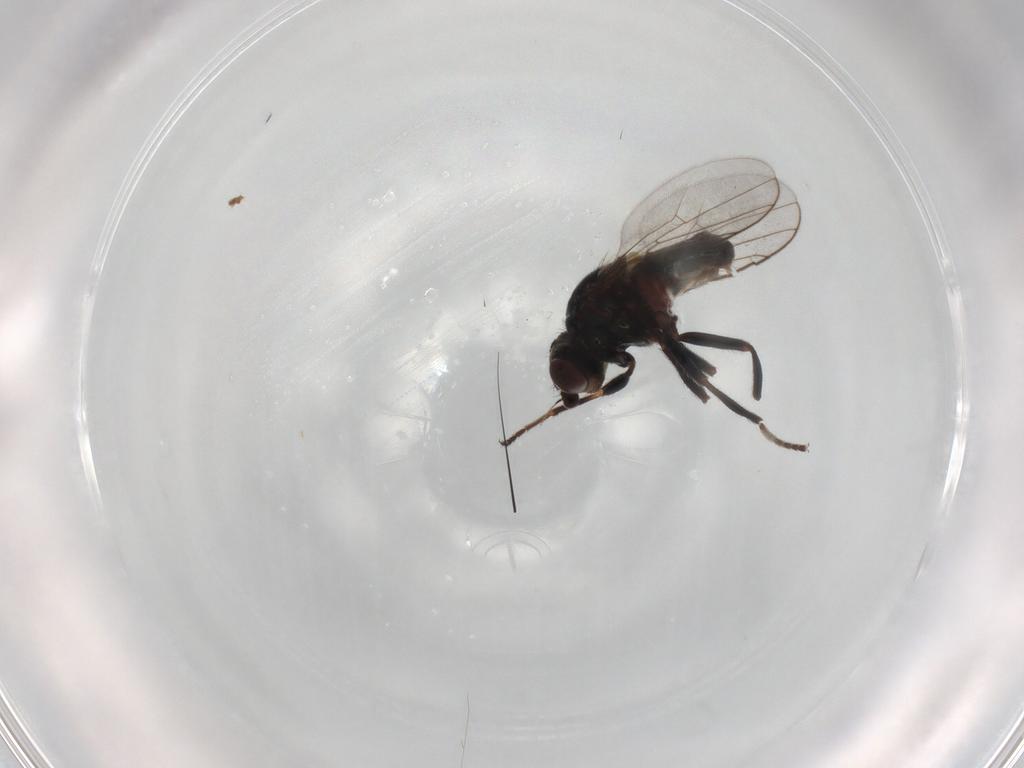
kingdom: Animalia
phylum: Arthropoda
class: Insecta
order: Diptera
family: Chloropidae
